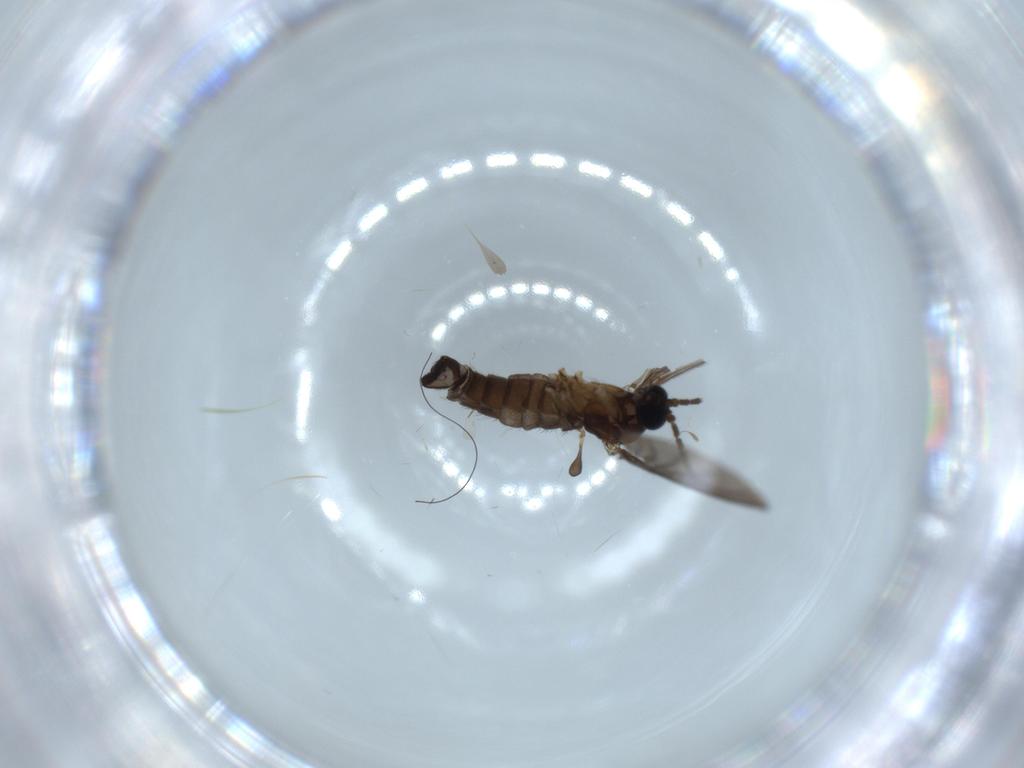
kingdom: Animalia
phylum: Arthropoda
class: Insecta
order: Diptera
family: Sciaridae
